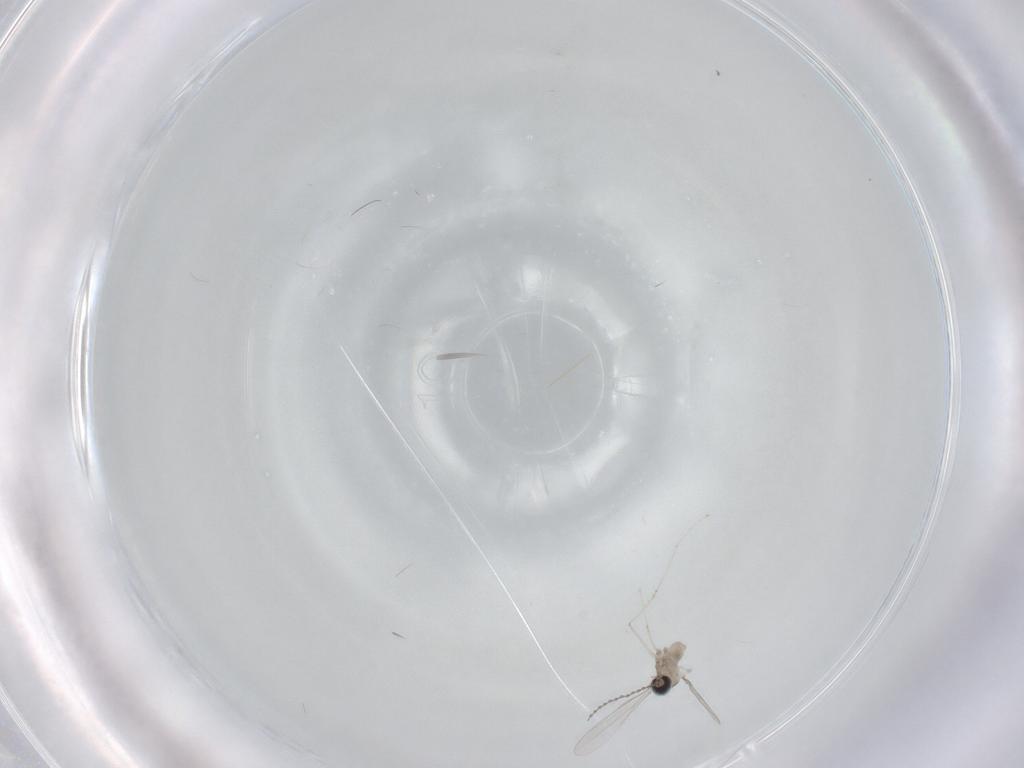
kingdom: Animalia
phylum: Arthropoda
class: Insecta
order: Diptera
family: Cecidomyiidae
